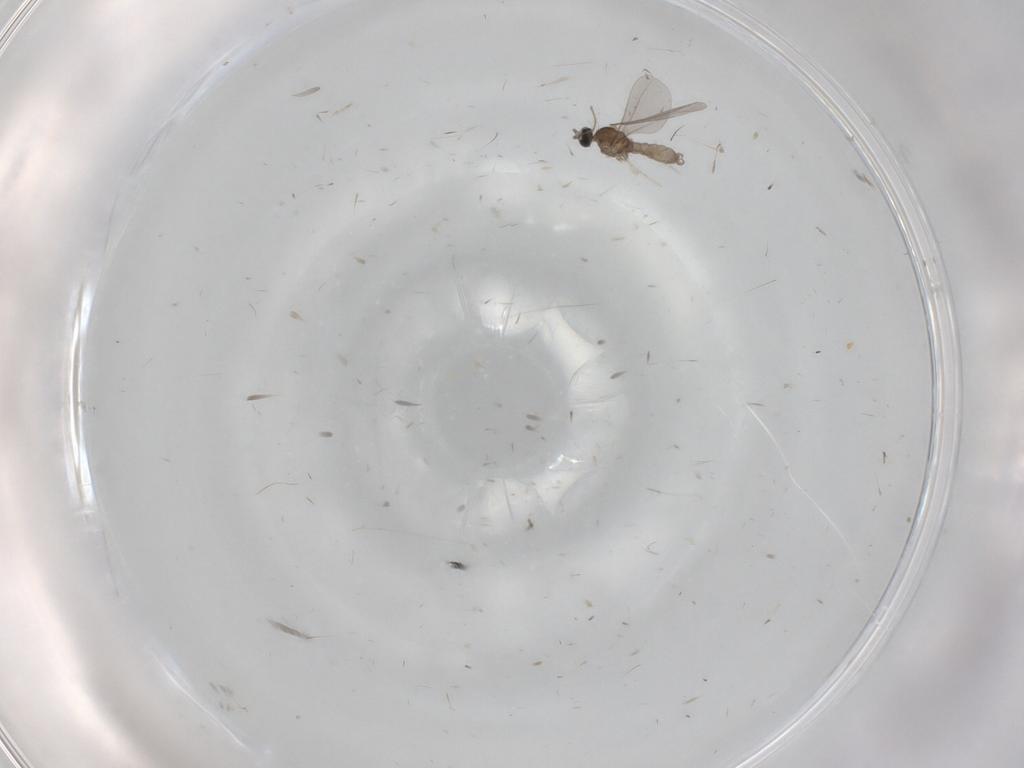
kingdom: Animalia
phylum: Arthropoda
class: Insecta
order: Diptera
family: Chironomidae
